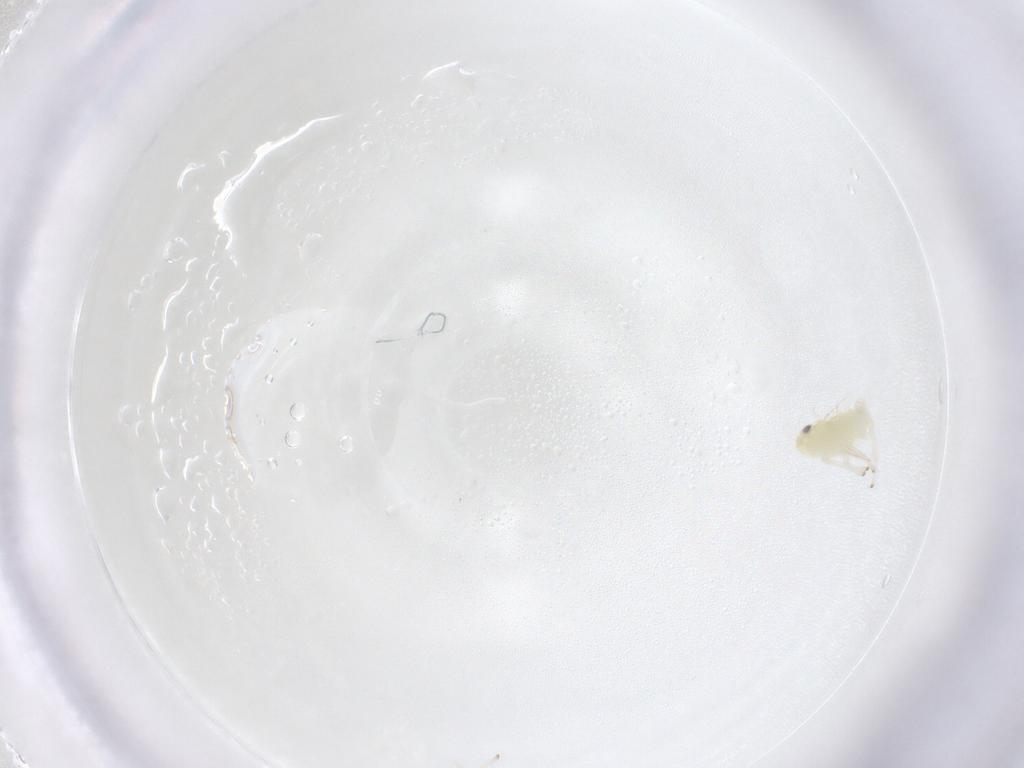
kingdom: Animalia
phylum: Arthropoda
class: Insecta
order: Hemiptera
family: Cicadellidae
